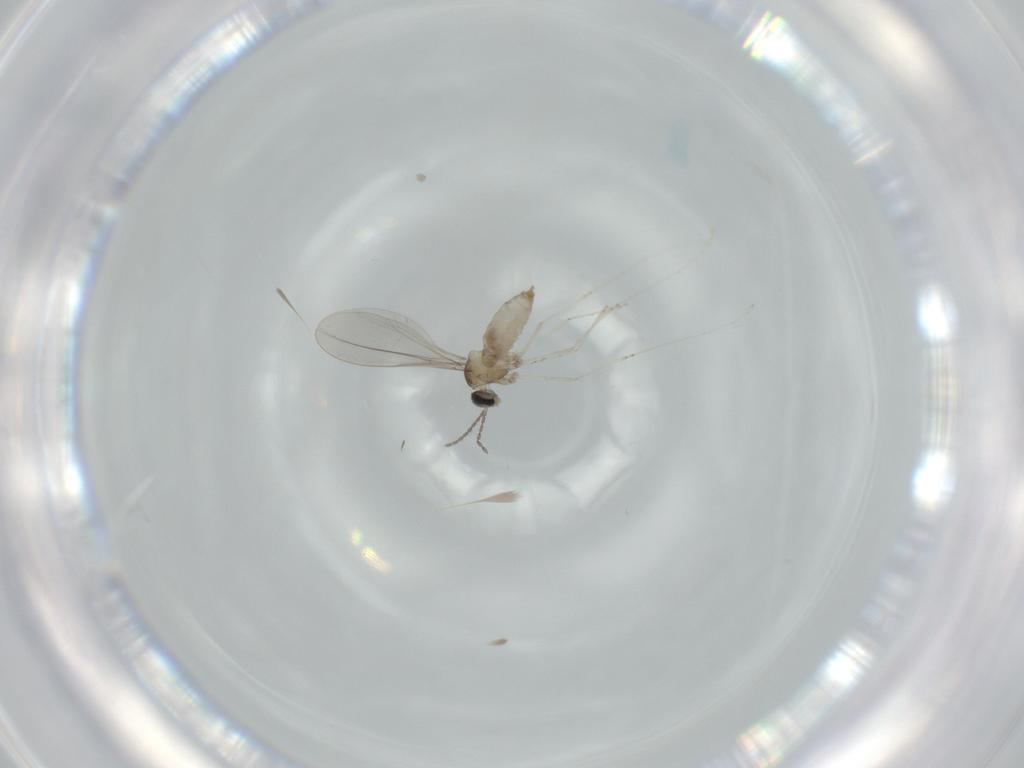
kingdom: Animalia
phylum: Arthropoda
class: Insecta
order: Diptera
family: Cecidomyiidae
